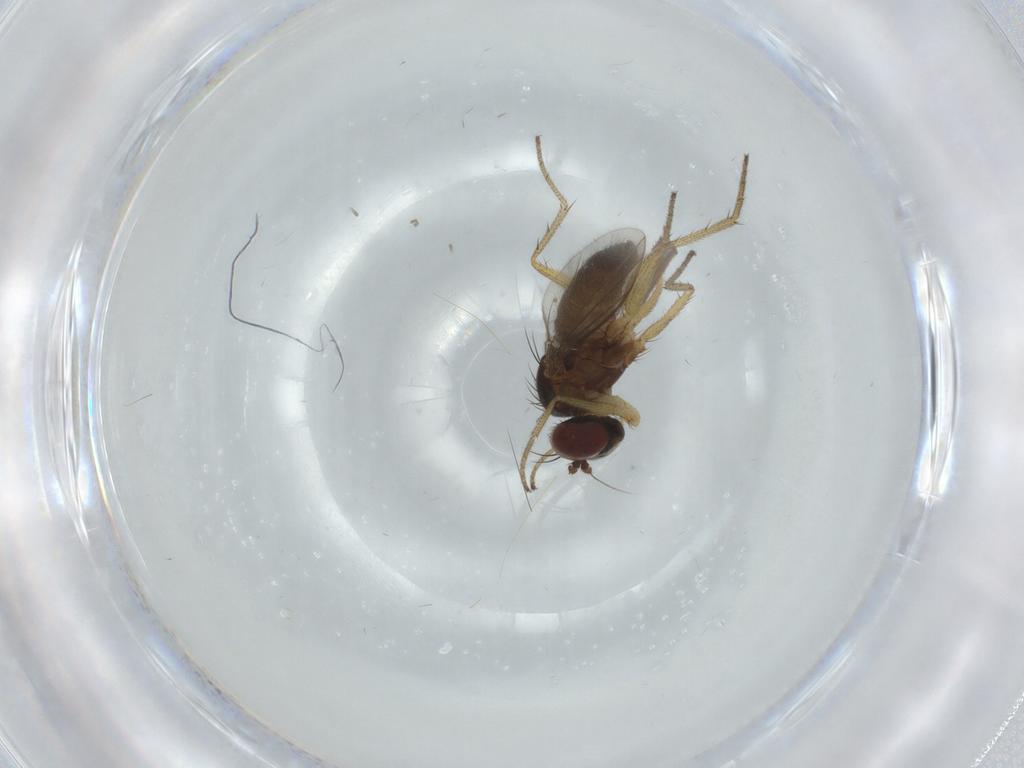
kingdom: Animalia
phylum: Arthropoda
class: Insecta
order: Diptera
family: Dolichopodidae
